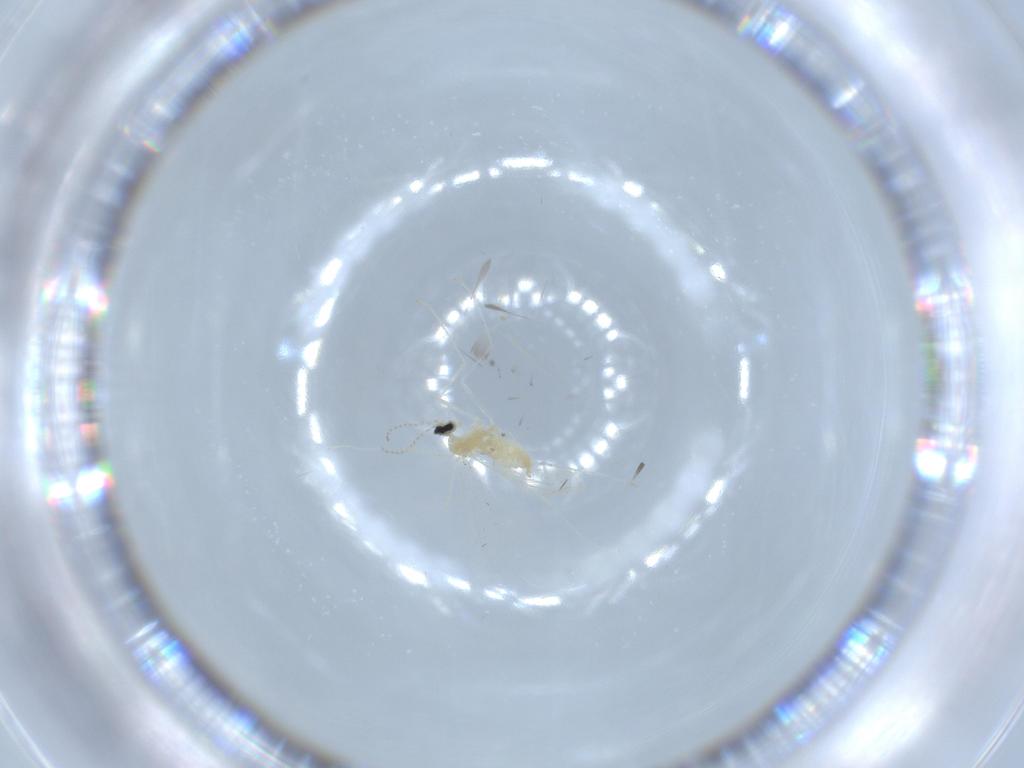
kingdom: Animalia
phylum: Arthropoda
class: Insecta
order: Diptera
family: Cecidomyiidae
